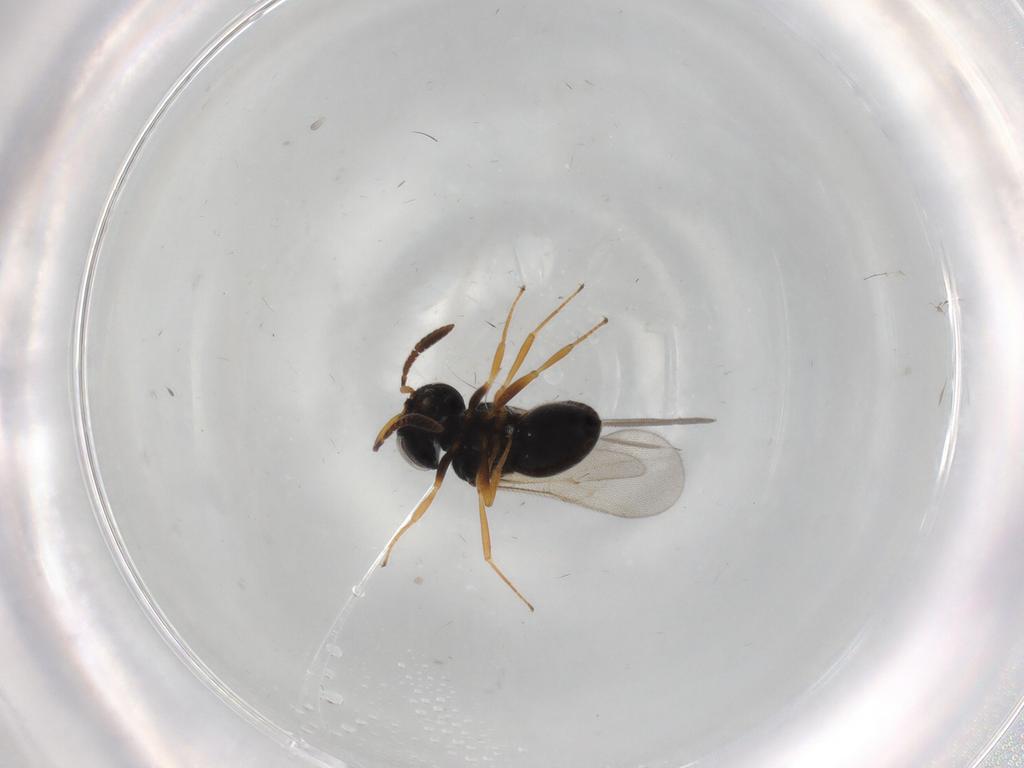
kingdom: Animalia
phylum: Arthropoda
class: Insecta
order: Hymenoptera
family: Scelionidae
